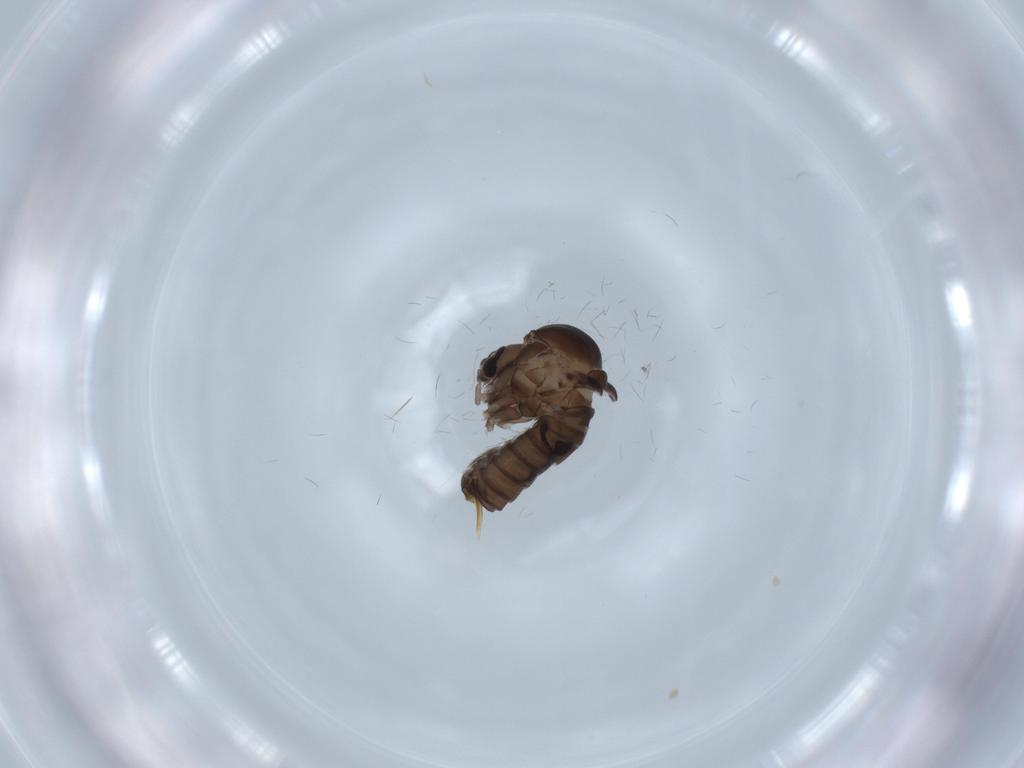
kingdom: Animalia
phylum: Arthropoda
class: Insecta
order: Diptera
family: Psychodidae
